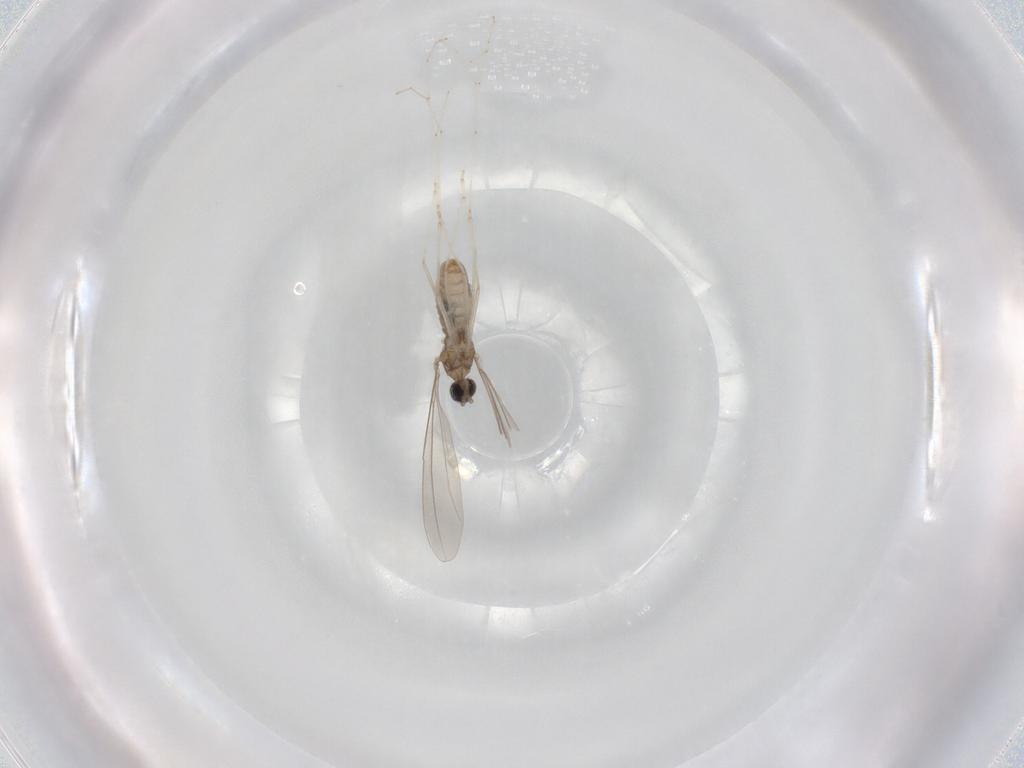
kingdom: Animalia
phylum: Arthropoda
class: Insecta
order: Diptera
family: Cecidomyiidae
